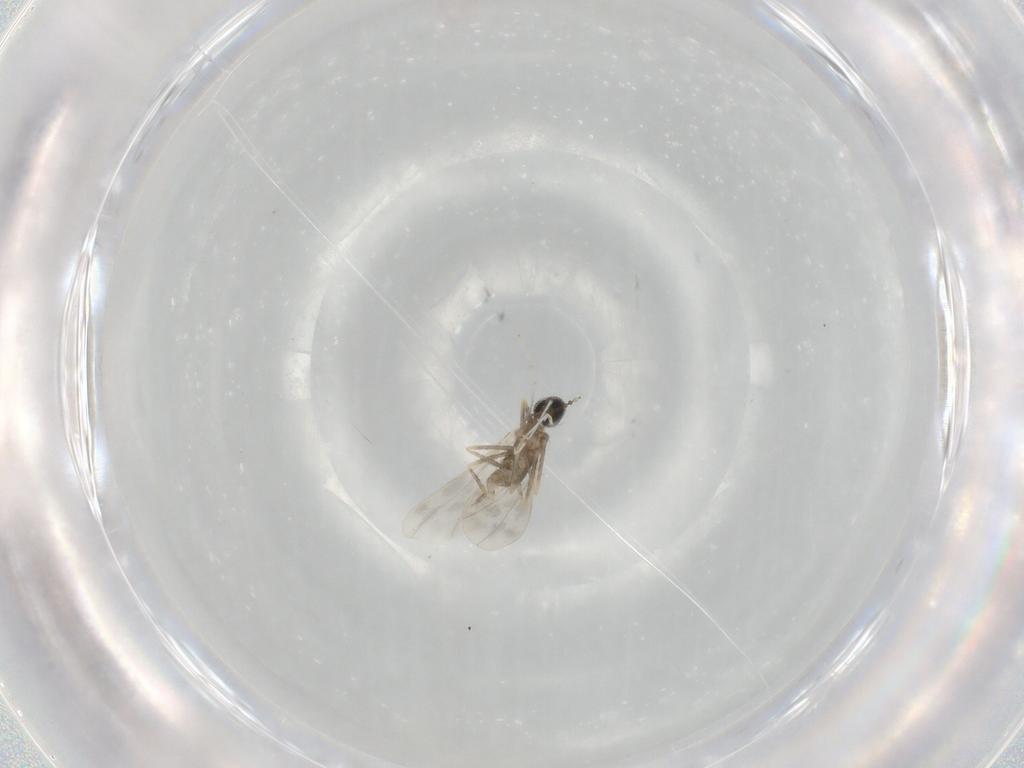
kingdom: Animalia
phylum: Arthropoda
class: Insecta
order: Diptera
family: Cecidomyiidae
